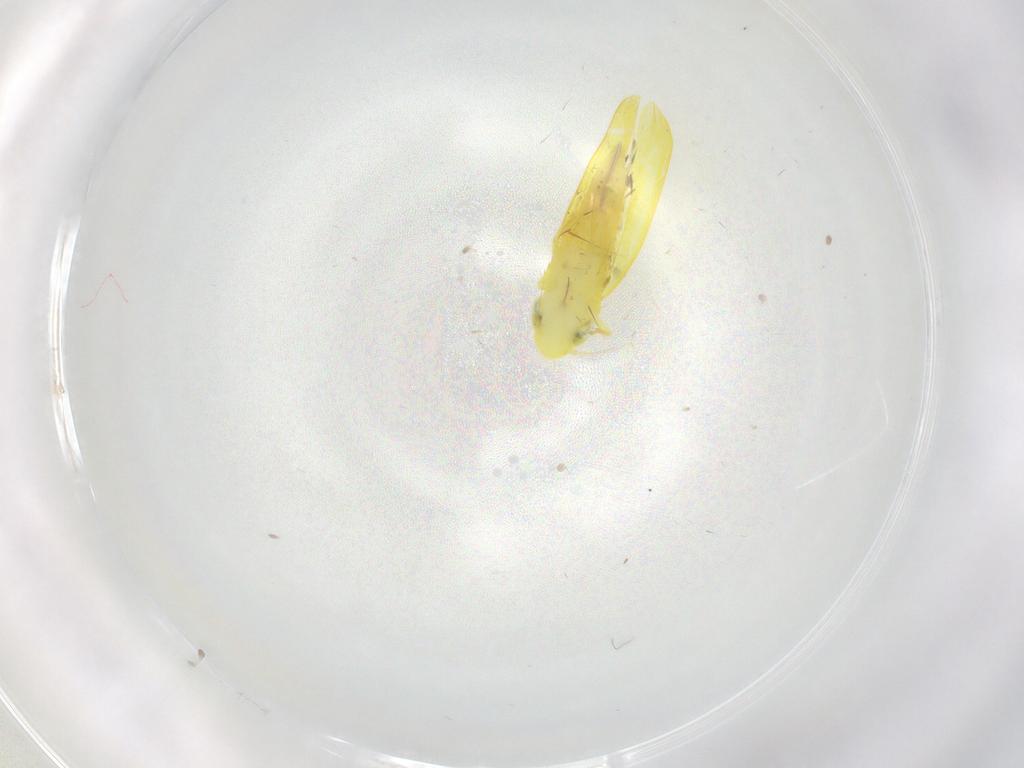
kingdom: Animalia
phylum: Arthropoda
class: Insecta
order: Hemiptera
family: Cicadellidae
